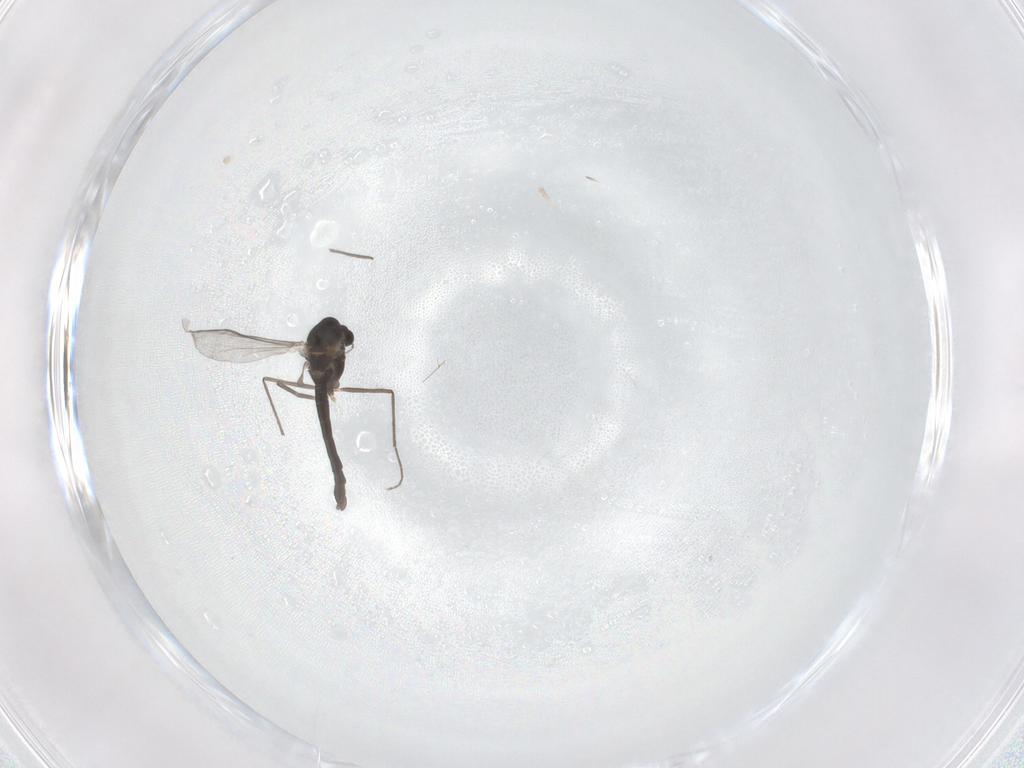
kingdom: Animalia
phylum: Arthropoda
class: Insecta
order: Diptera
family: Chironomidae
